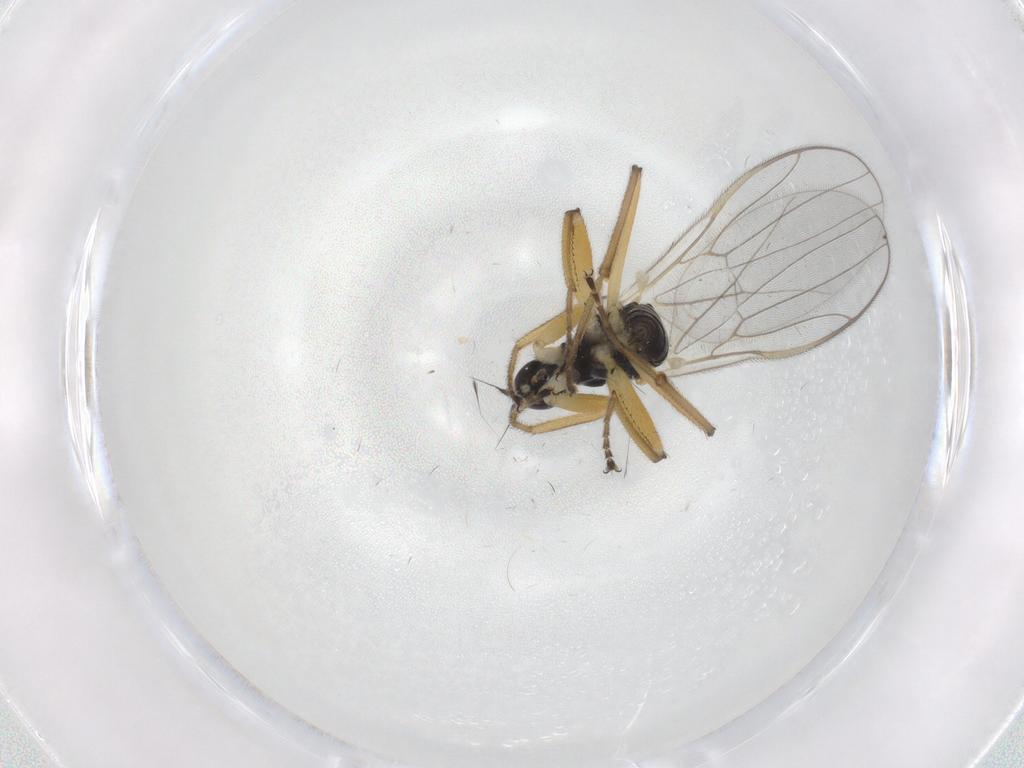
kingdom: Animalia
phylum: Arthropoda
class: Insecta
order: Diptera
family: Hybotidae
